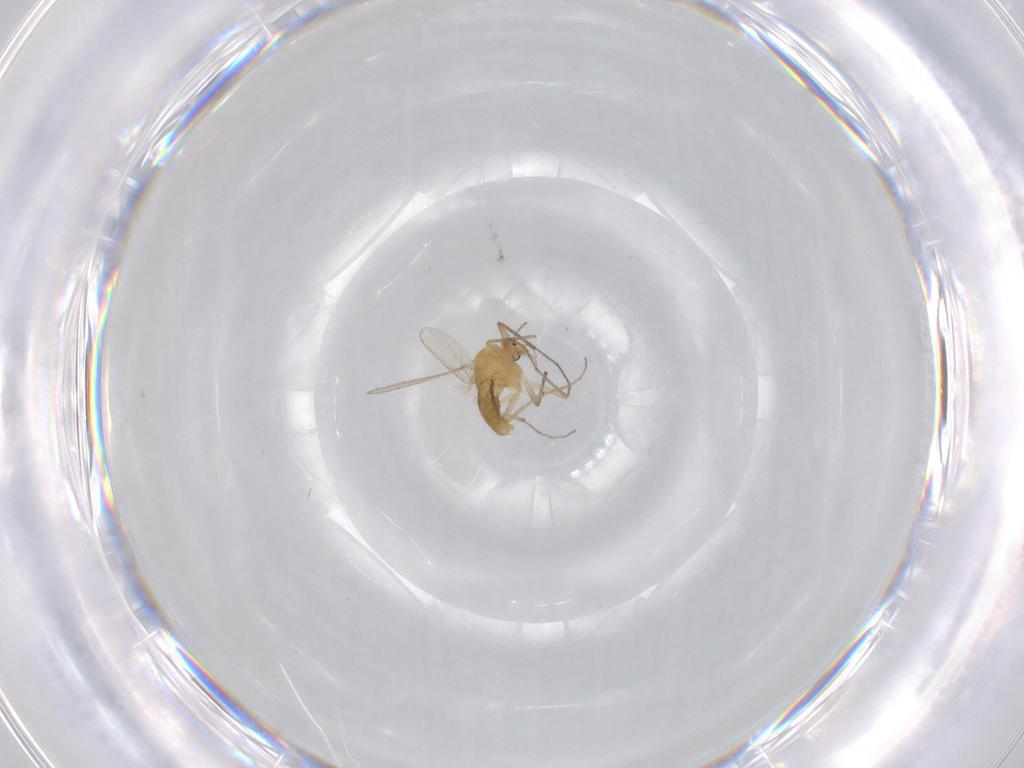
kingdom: Animalia
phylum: Arthropoda
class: Insecta
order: Diptera
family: Chironomidae
